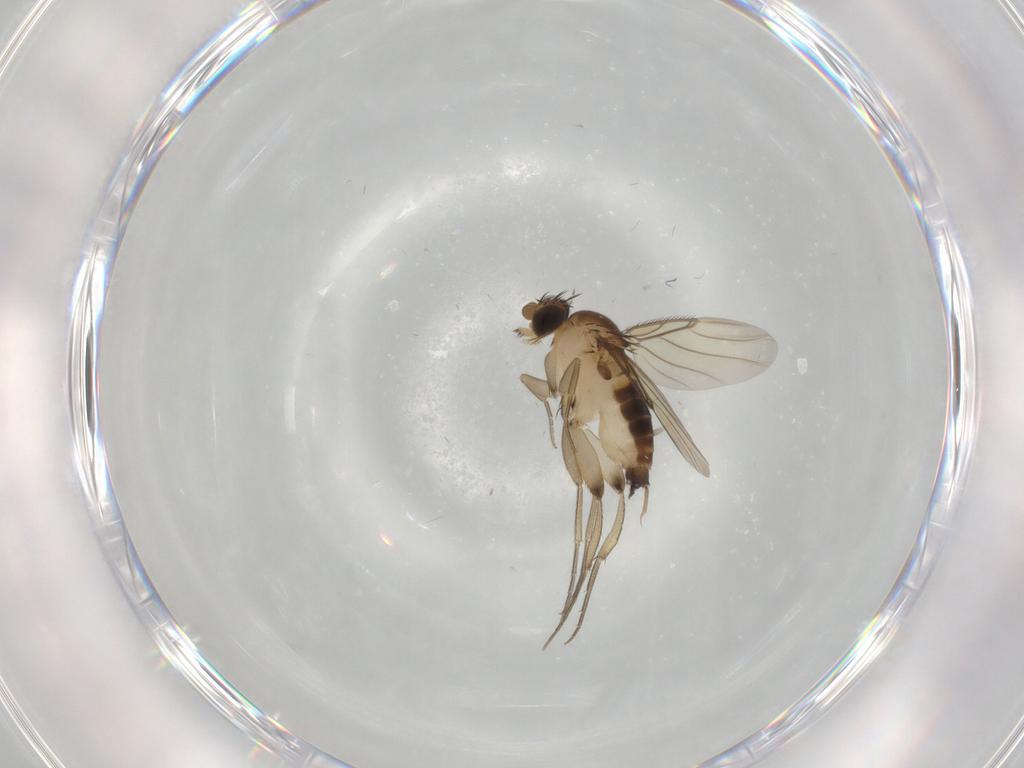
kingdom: Animalia
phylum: Arthropoda
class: Insecta
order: Diptera
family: Phoridae
